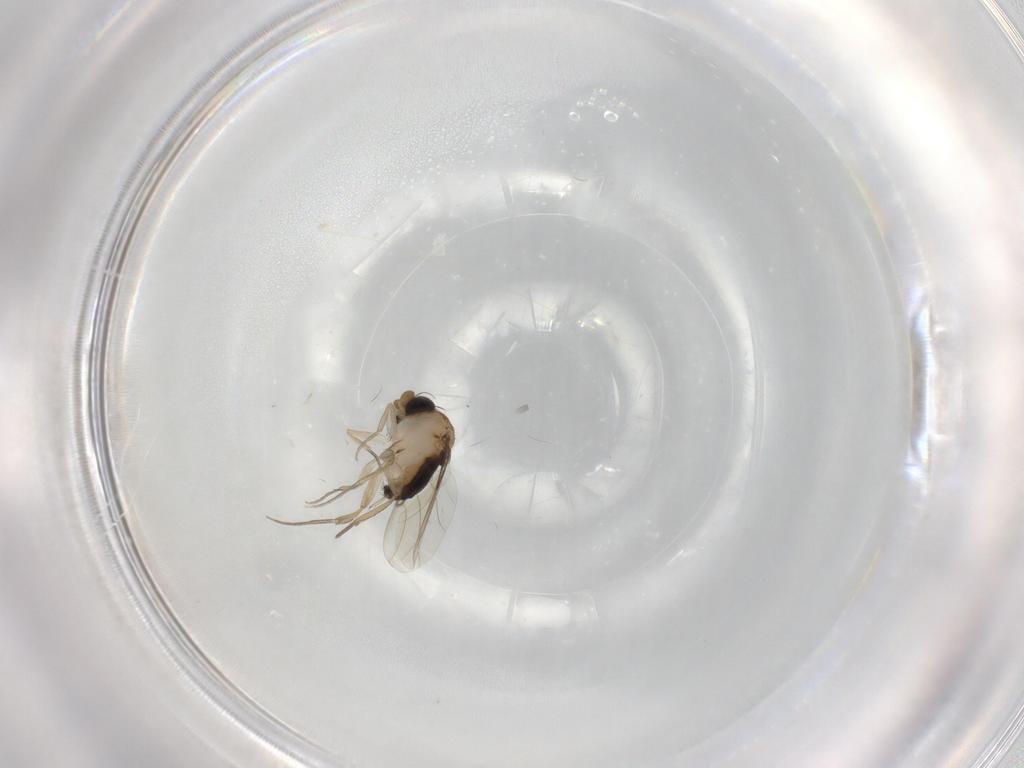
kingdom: Animalia
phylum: Arthropoda
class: Insecta
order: Diptera
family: Phoridae
